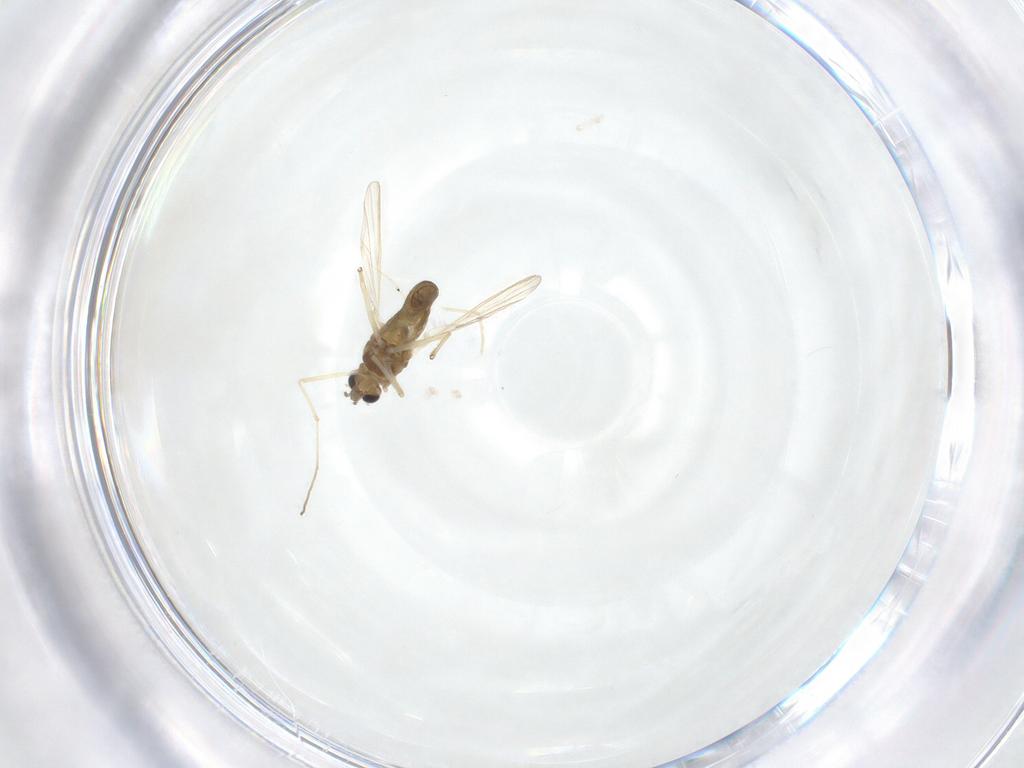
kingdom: Animalia
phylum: Arthropoda
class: Insecta
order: Diptera
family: Chironomidae
